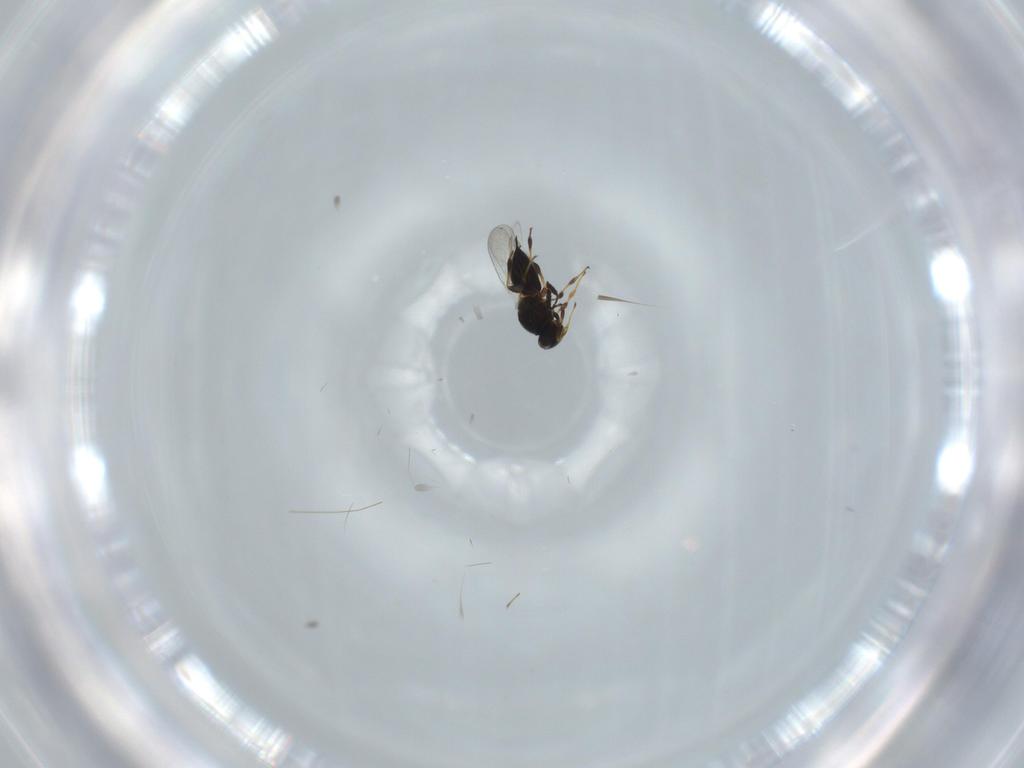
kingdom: Animalia
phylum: Arthropoda
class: Insecta
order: Hymenoptera
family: Platygastridae
